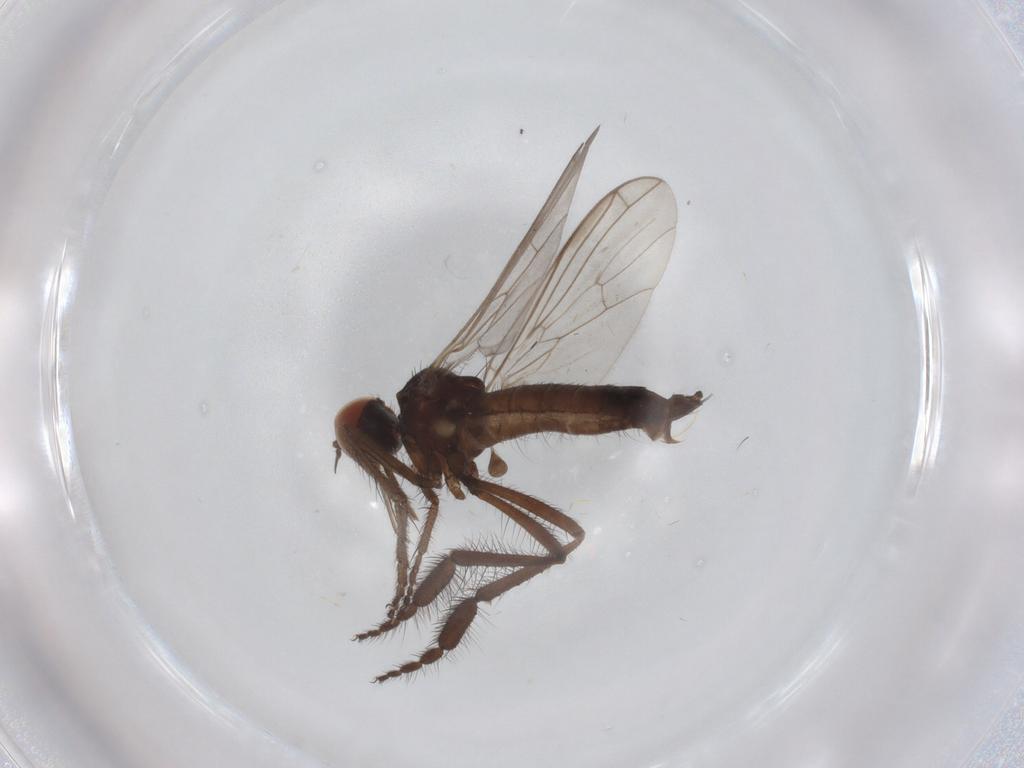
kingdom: Animalia
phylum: Arthropoda
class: Insecta
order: Diptera
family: Empididae
